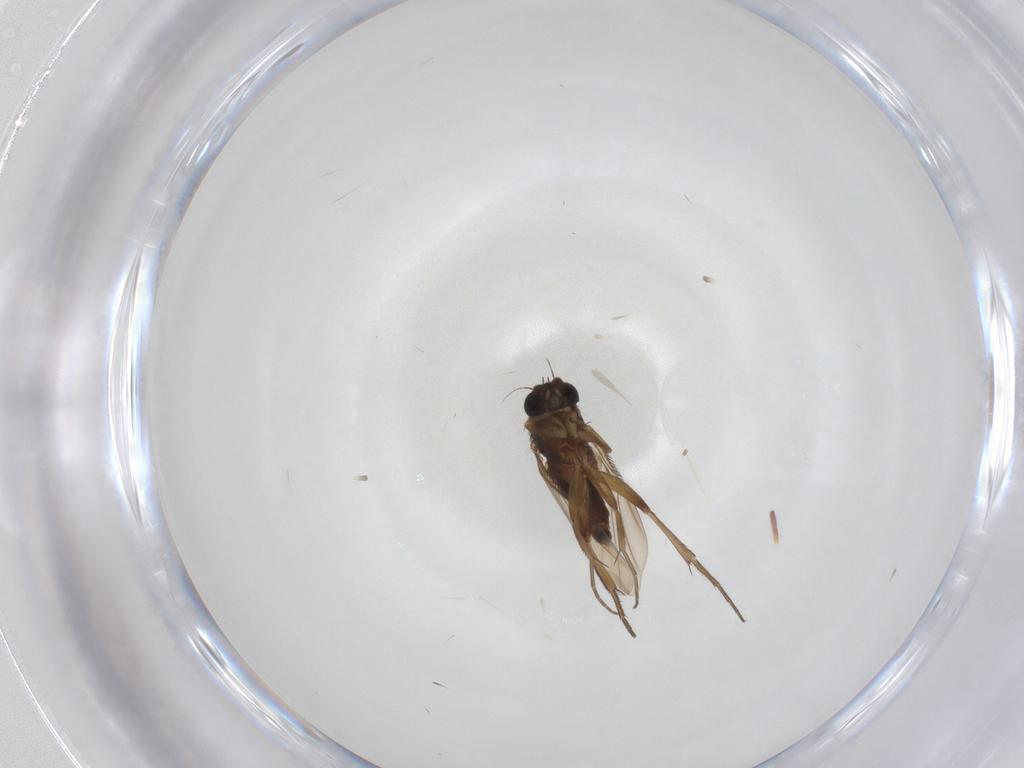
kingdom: Animalia
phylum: Arthropoda
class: Insecta
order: Diptera
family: Phoridae
